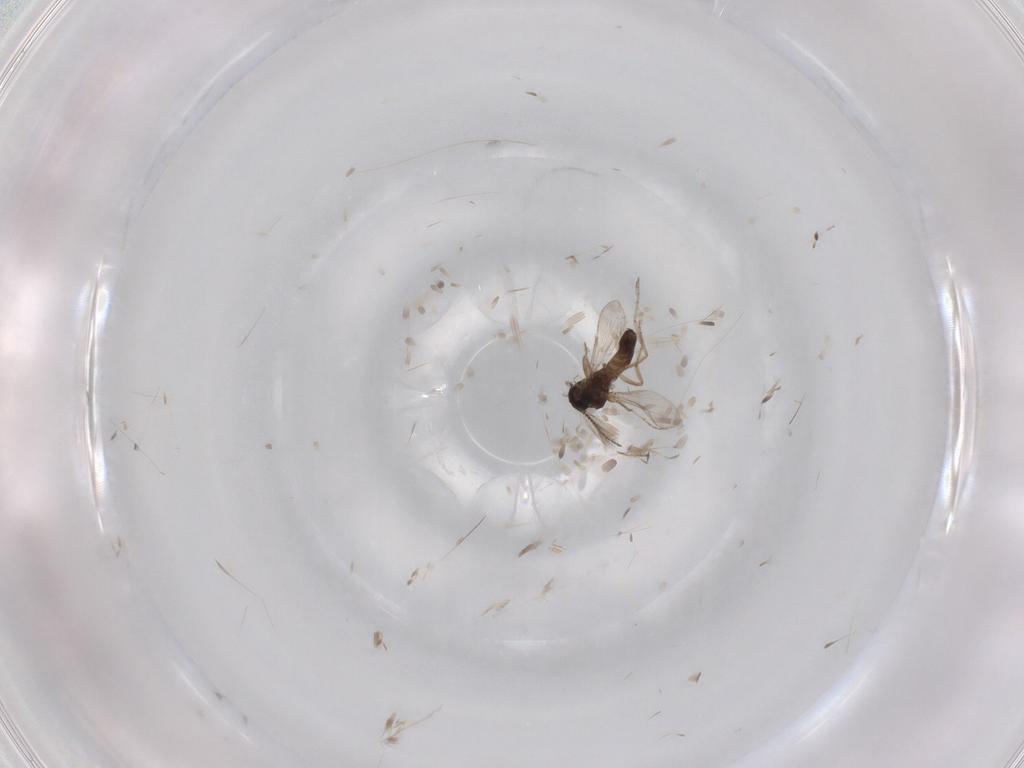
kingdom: Animalia
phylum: Arthropoda
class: Insecta
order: Diptera
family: Ceratopogonidae
